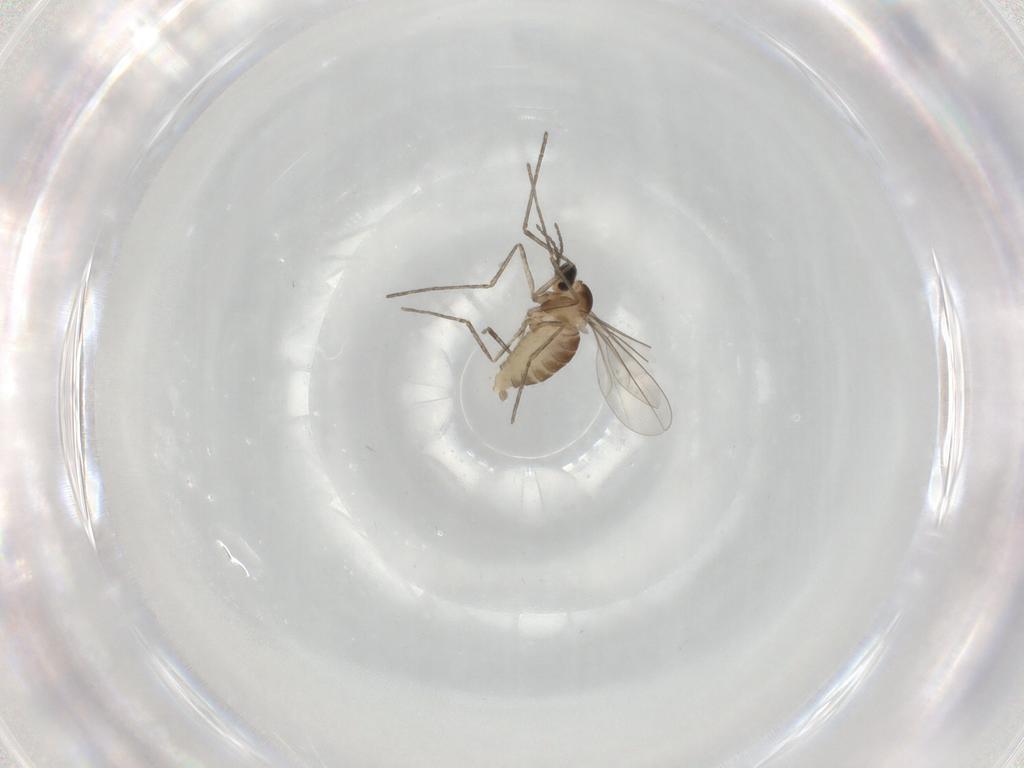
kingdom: Animalia
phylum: Arthropoda
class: Insecta
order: Diptera
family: Cecidomyiidae
